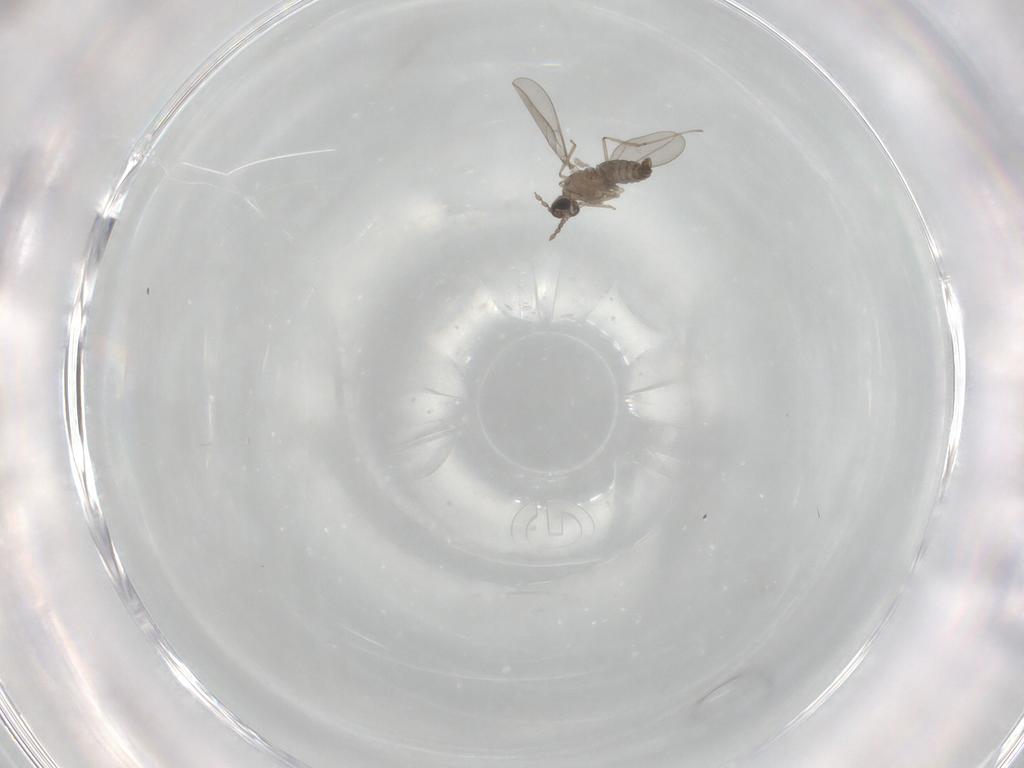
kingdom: Animalia
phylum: Arthropoda
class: Insecta
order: Diptera
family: Cecidomyiidae
